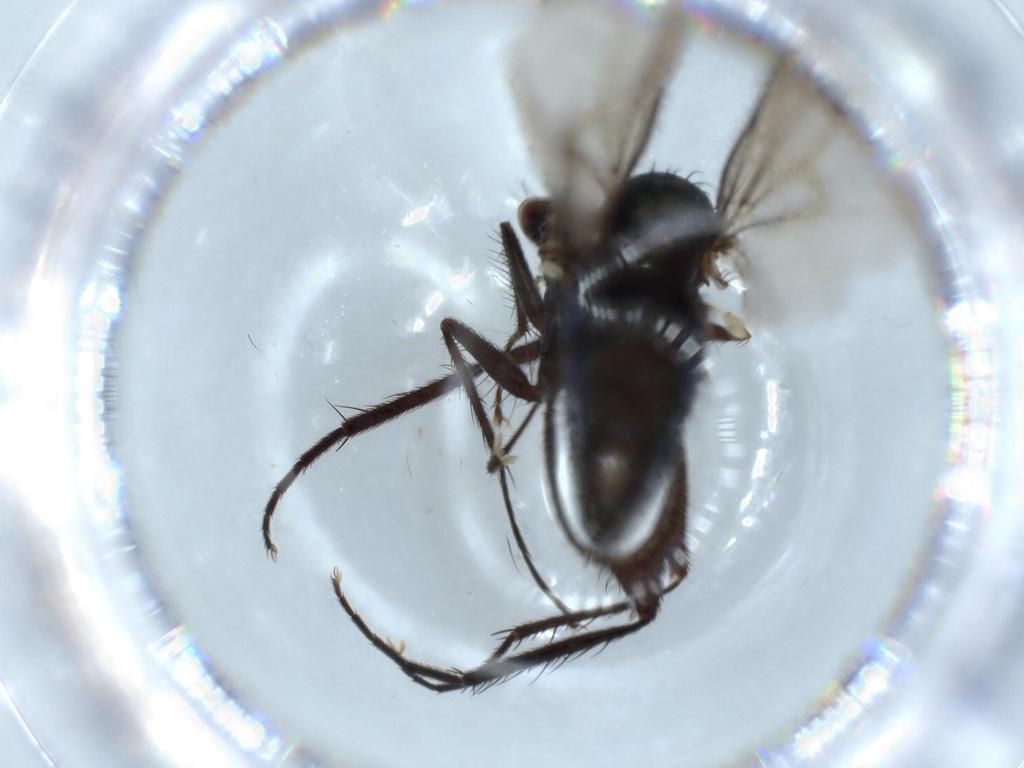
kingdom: Animalia
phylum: Arthropoda
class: Insecta
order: Diptera
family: Dolichopodidae
